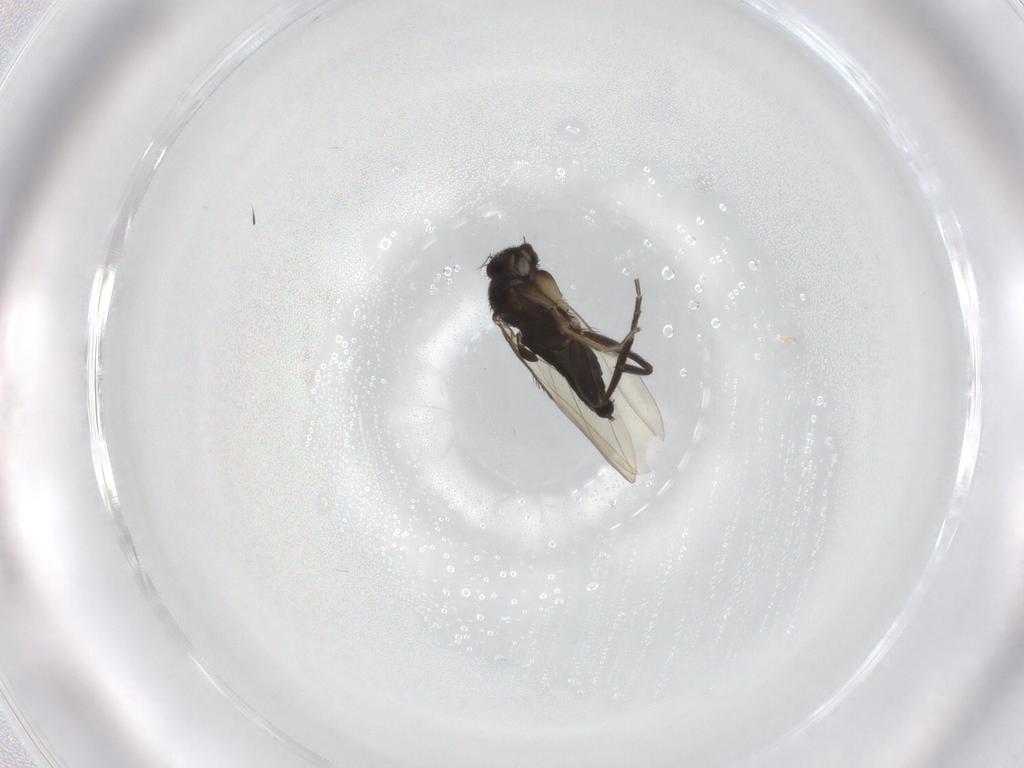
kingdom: Animalia
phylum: Arthropoda
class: Insecta
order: Diptera
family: Phoridae
